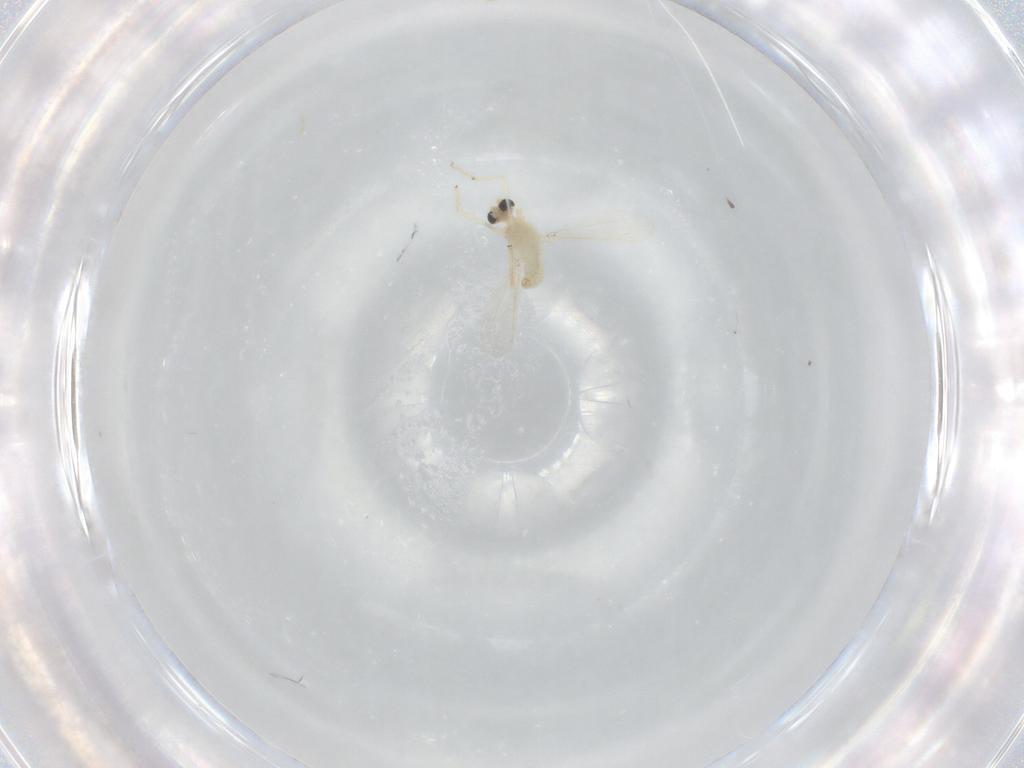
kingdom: Animalia
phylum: Arthropoda
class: Insecta
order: Diptera
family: Chironomidae
